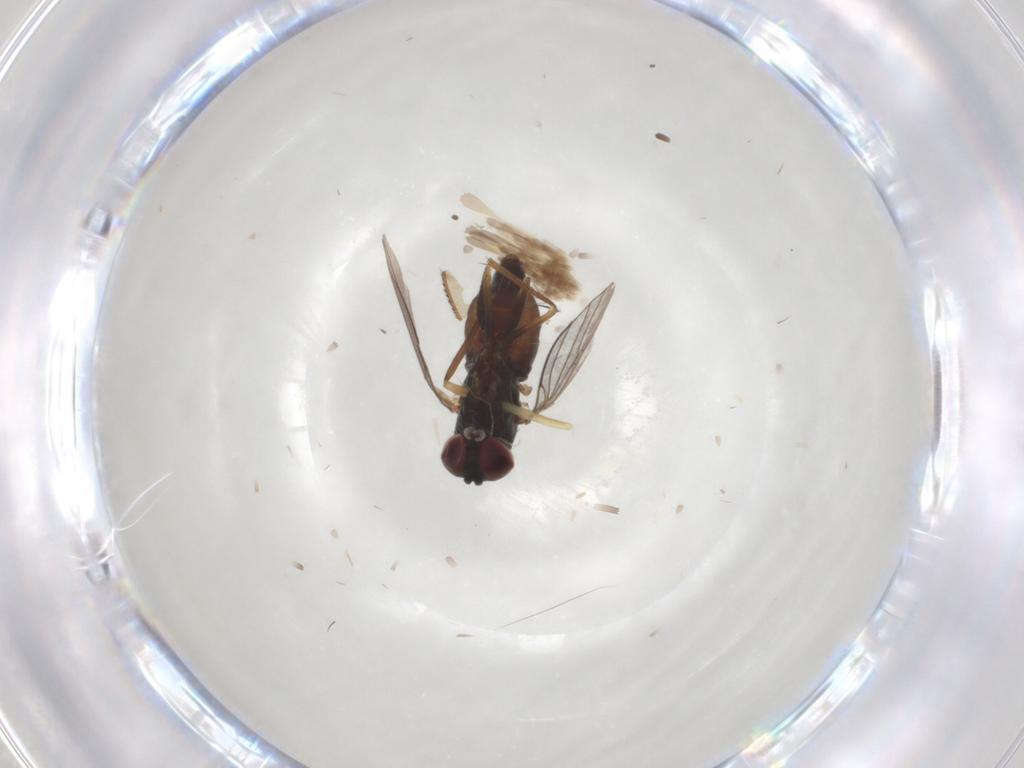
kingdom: Animalia
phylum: Arthropoda
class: Insecta
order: Diptera
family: Dolichopodidae
